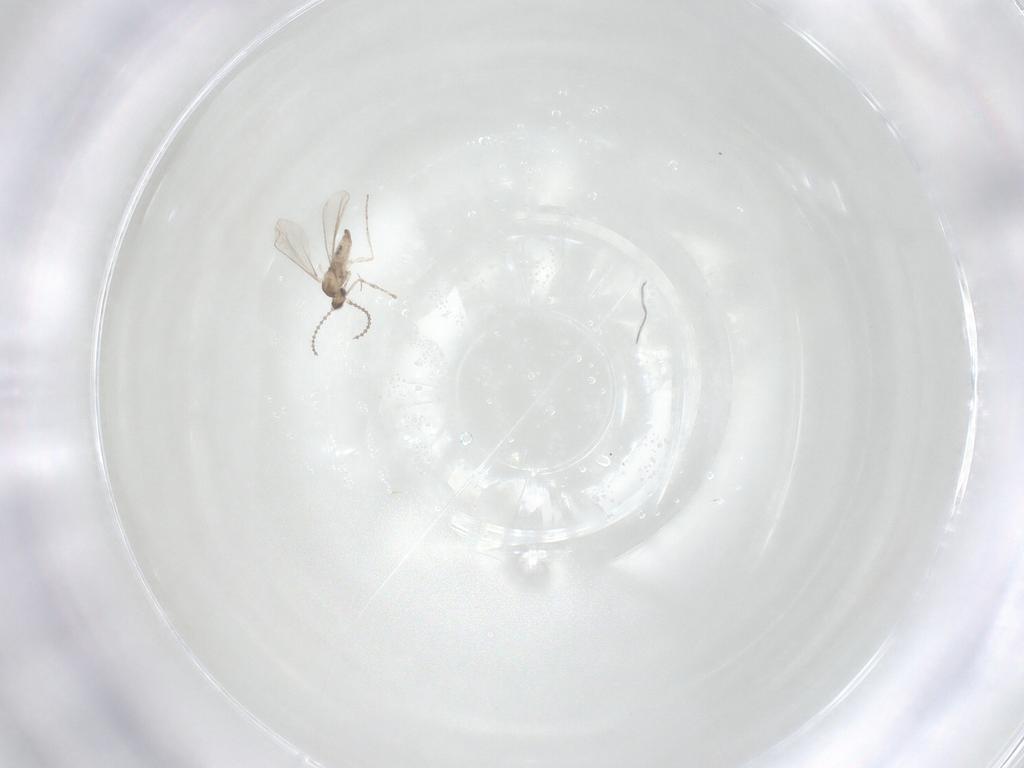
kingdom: Animalia
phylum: Arthropoda
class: Insecta
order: Diptera
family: Cecidomyiidae
